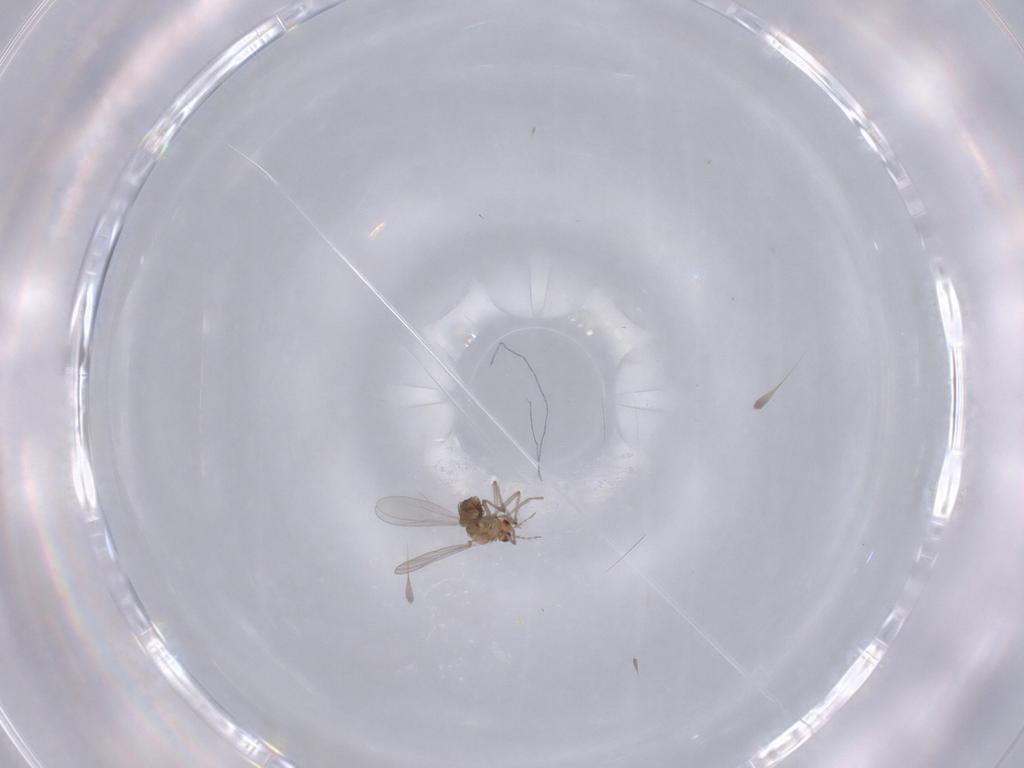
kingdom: Animalia
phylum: Arthropoda
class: Insecta
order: Diptera
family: Chironomidae
